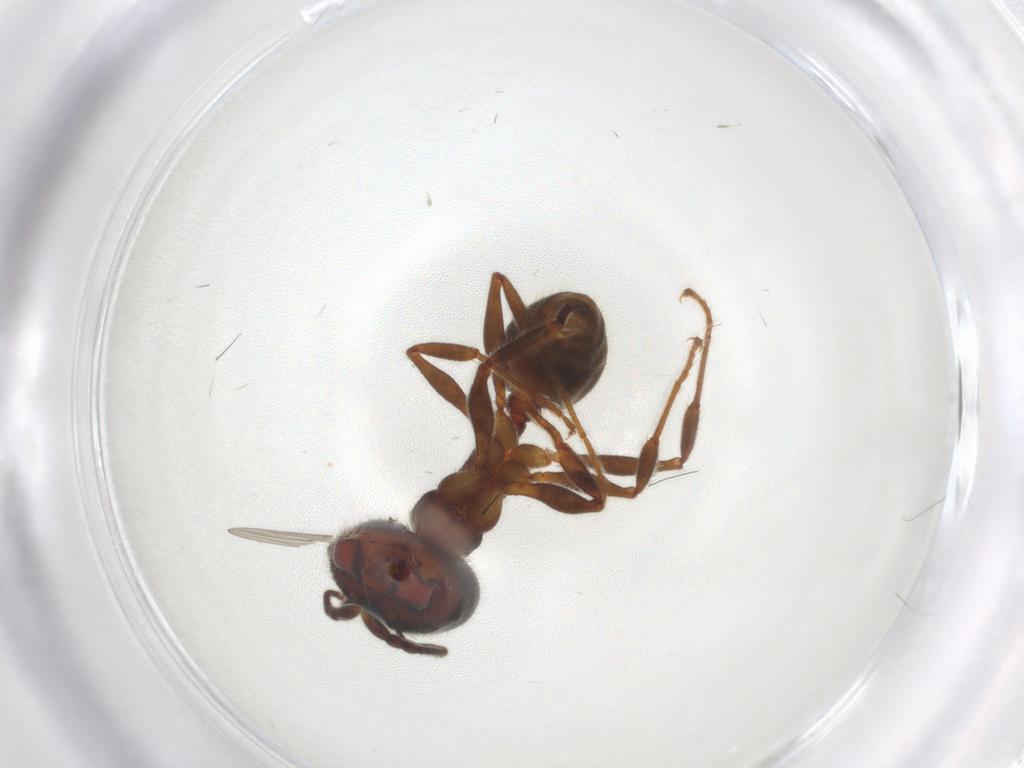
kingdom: Animalia
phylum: Arthropoda
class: Insecta
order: Hymenoptera
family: Formicidae
